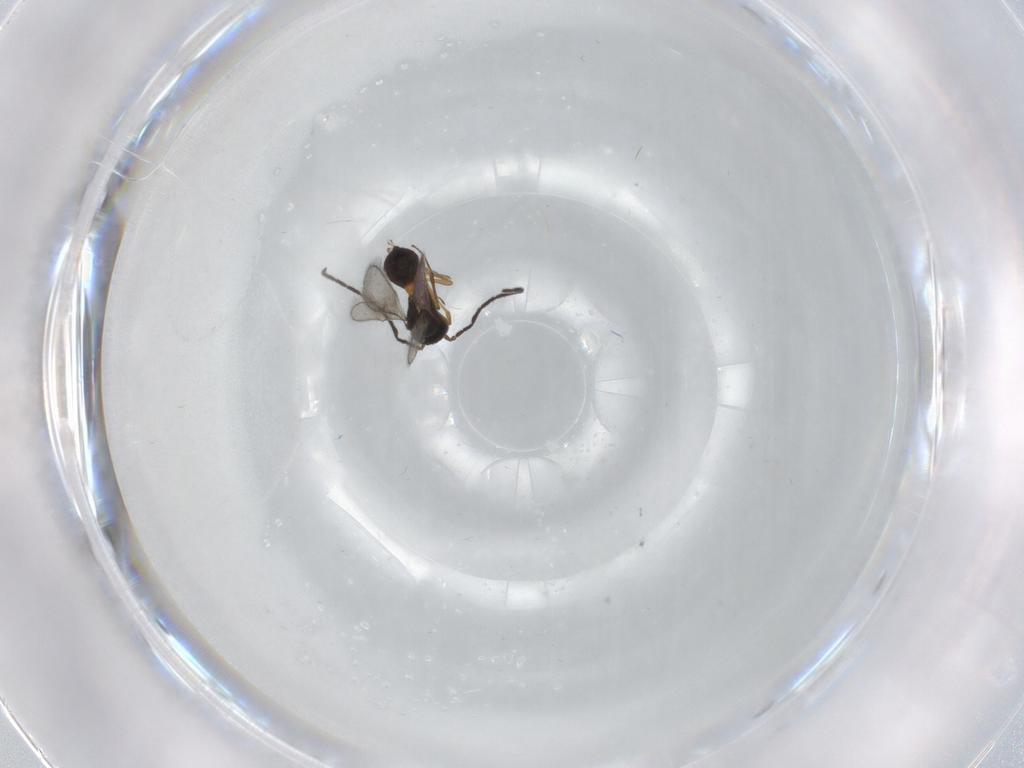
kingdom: Animalia
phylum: Arthropoda
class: Insecta
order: Hymenoptera
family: Scelionidae
